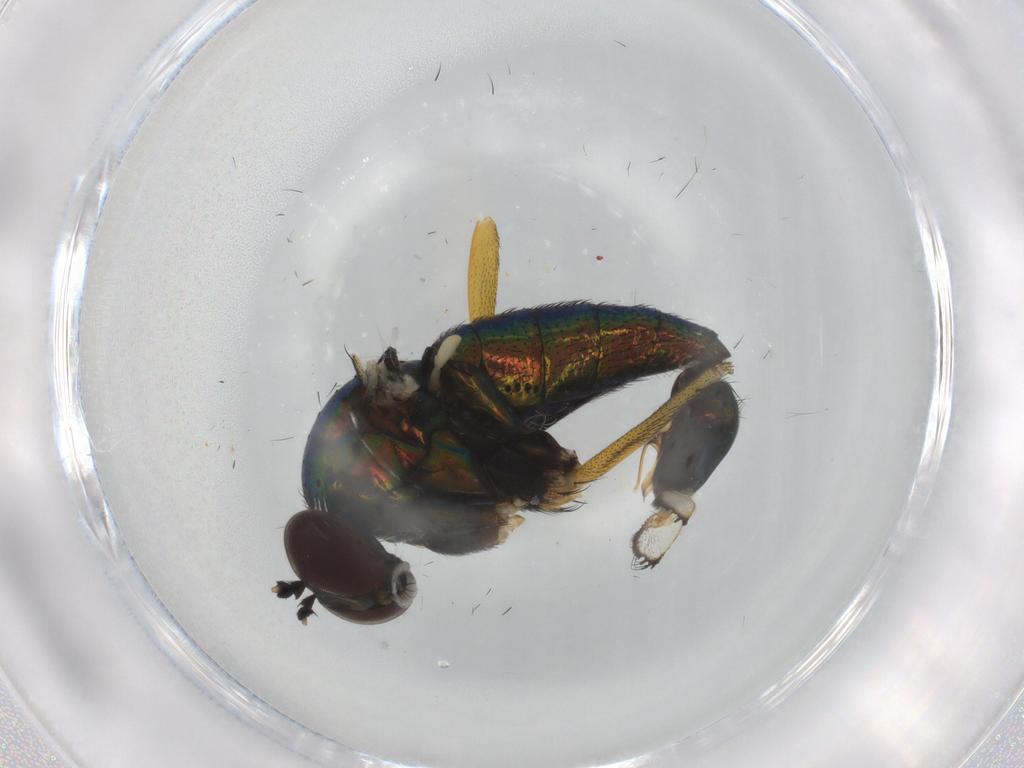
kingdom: Animalia
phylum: Arthropoda
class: Insecta
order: Diptera
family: Dolichopodidae
